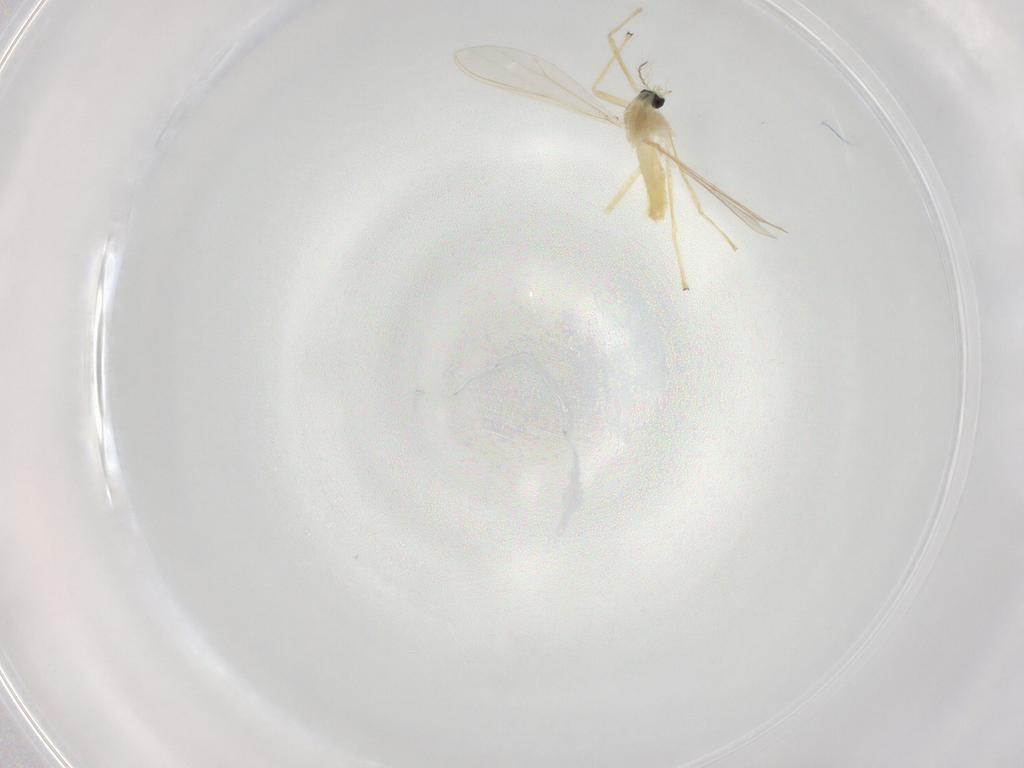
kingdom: Animalia
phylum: Arthropoda
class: Insecta
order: Diptera
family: Chironomidae
